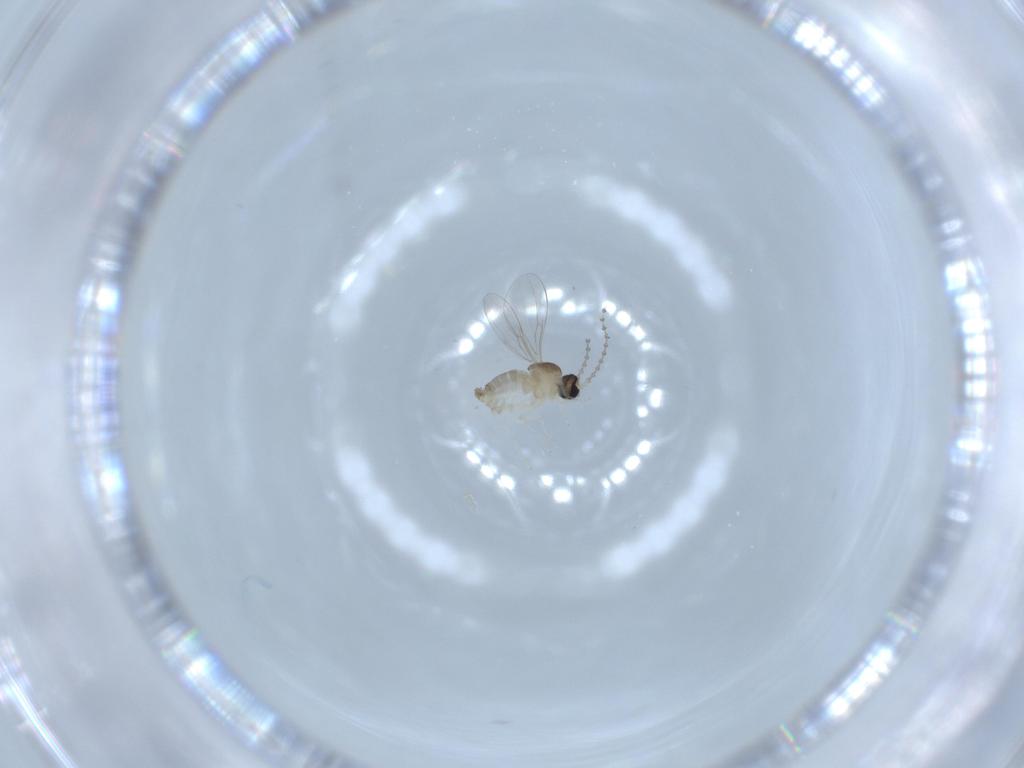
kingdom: Animalia
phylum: Arthropoda
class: Insecta
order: Diptera
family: Cecidomyiidae
